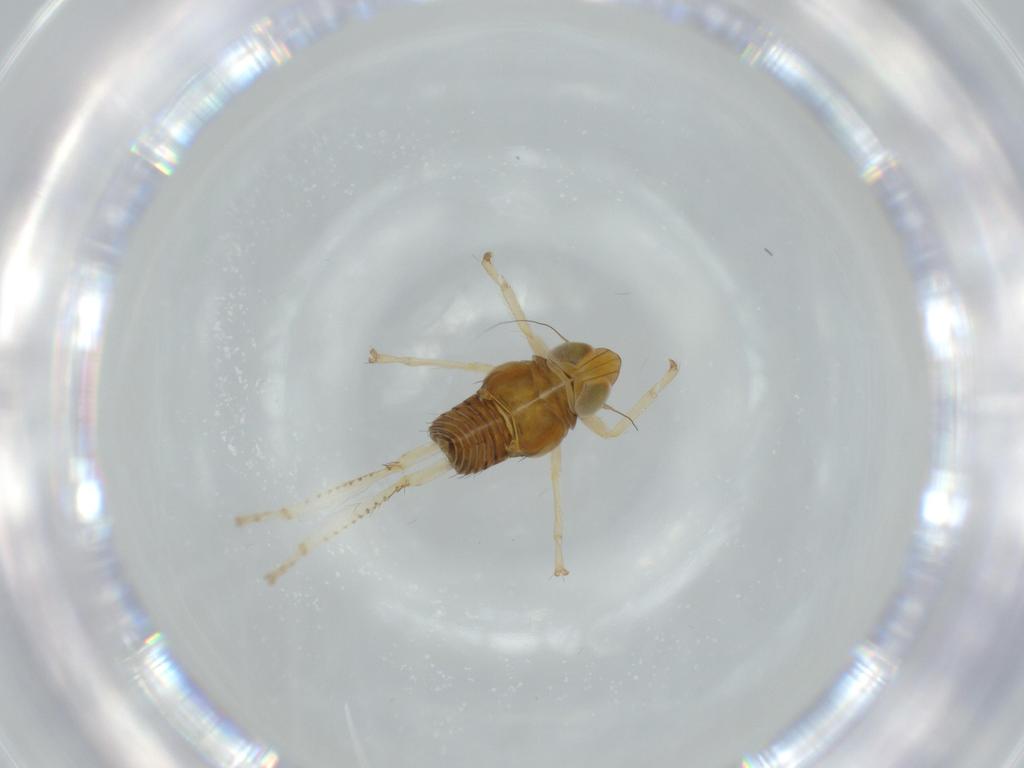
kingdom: Animalia
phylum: Arthropoda
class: Insecta
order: Hemiptera
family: Cicadellidae
